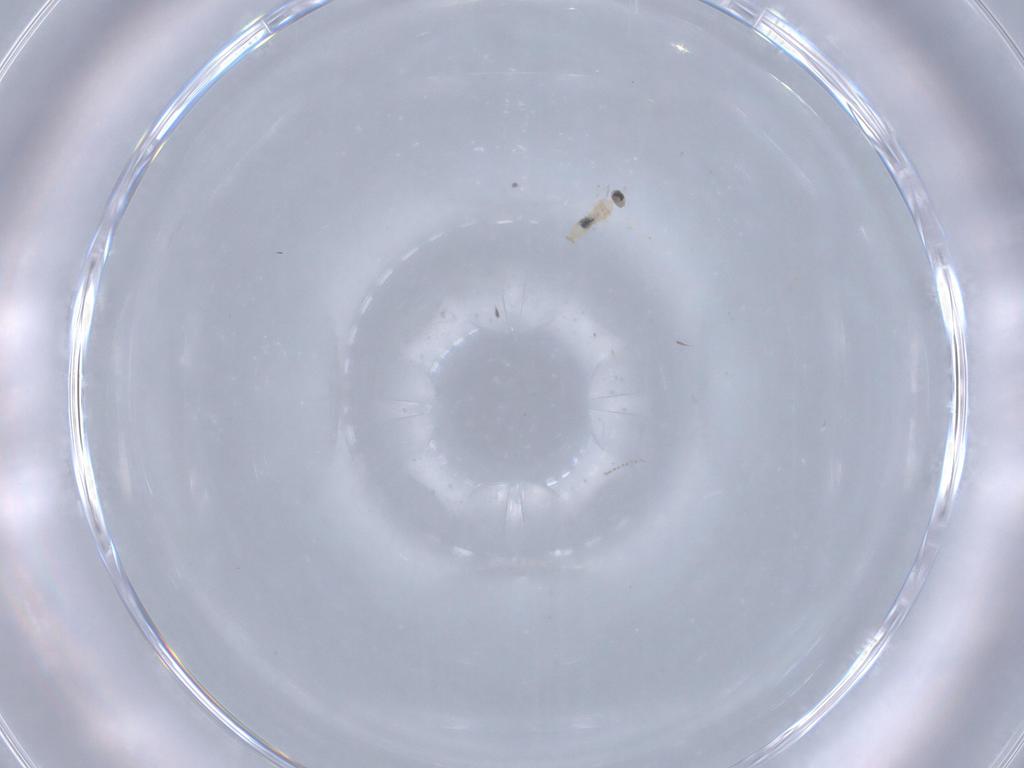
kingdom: Animalia
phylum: Arthropoda
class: Insecta
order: Diptera
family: Cecidomyiidae
